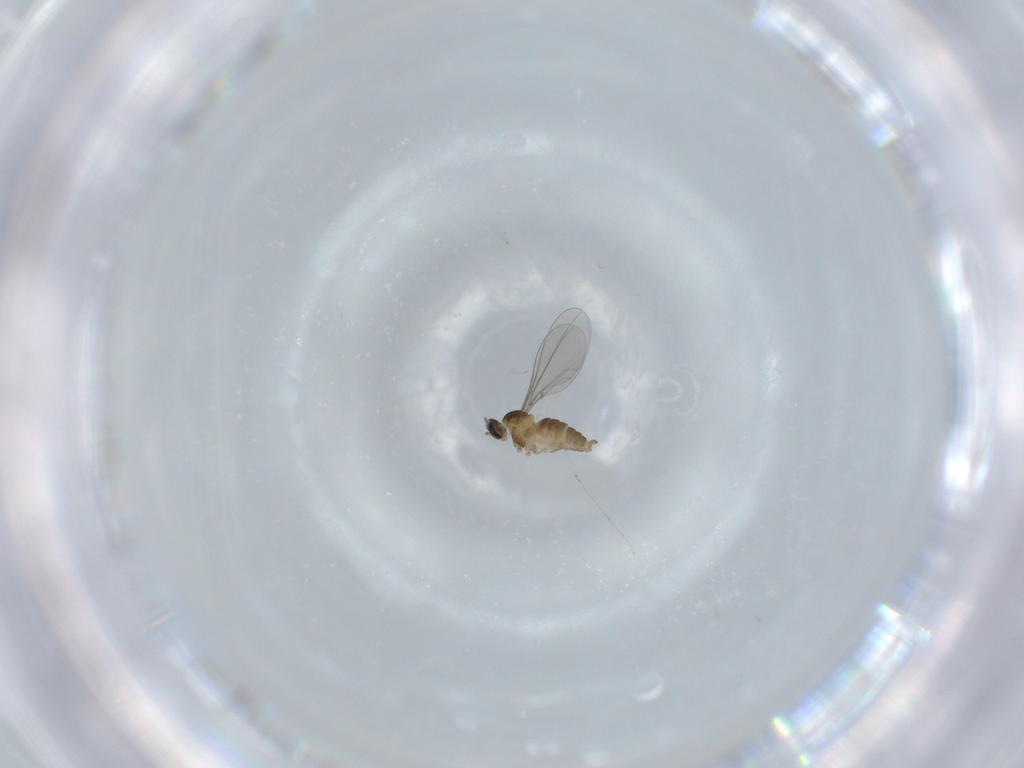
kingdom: Animalia
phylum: Arthropoda
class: Insecta
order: Diptera
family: Cecidomyiidae
